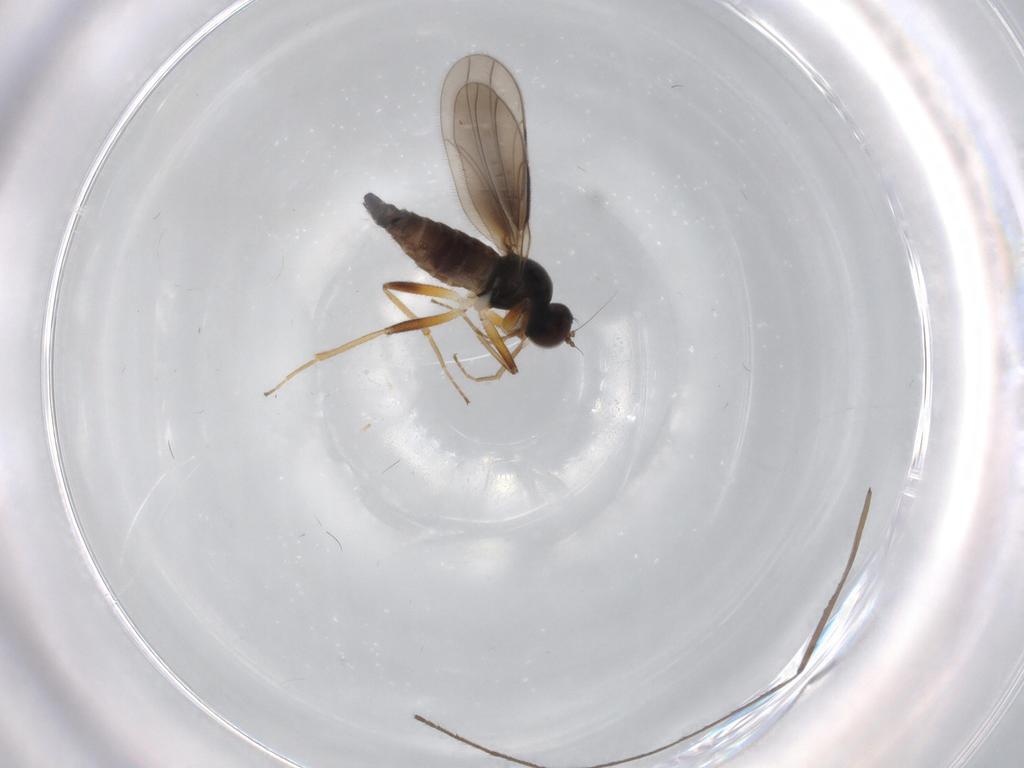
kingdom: Animalia
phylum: Arthropoda
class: Insecta
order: Diptera
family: Hybotidae
